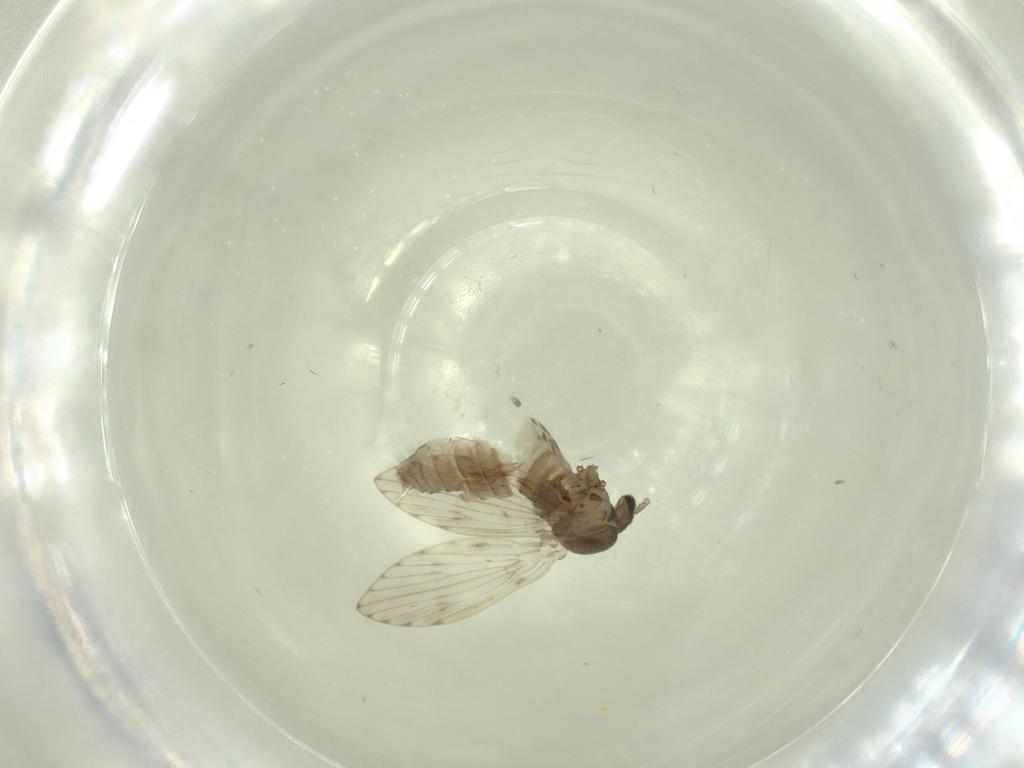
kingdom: Animalia
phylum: Arthropoda
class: Insecta
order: Diptera
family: Psychodidae
